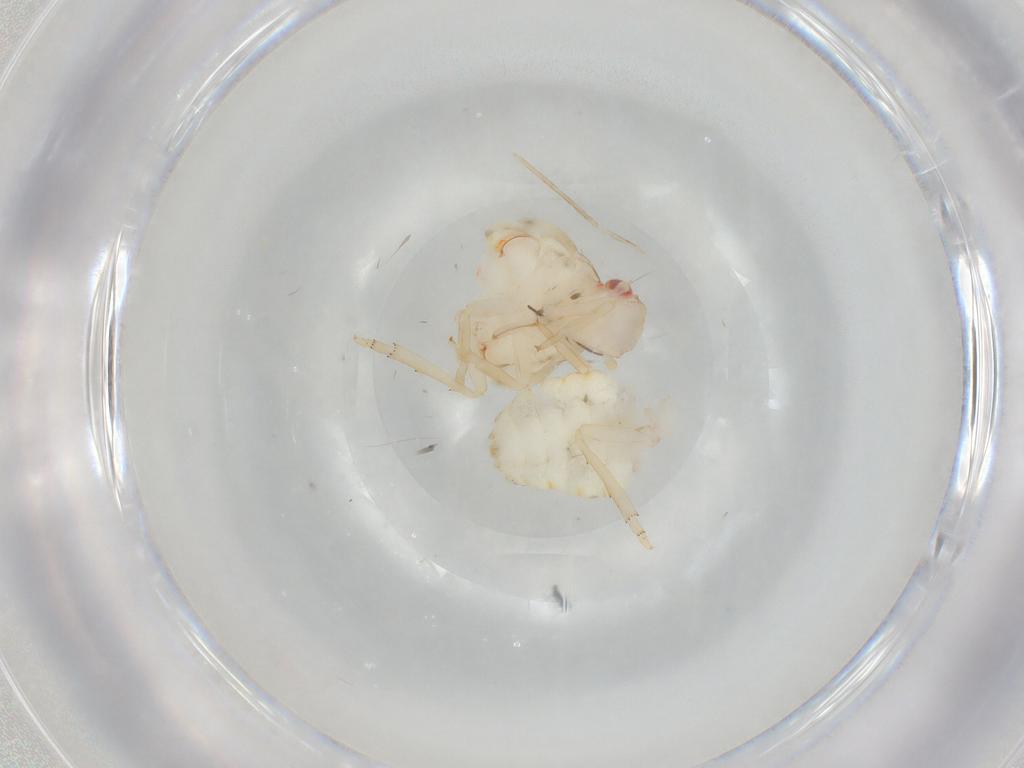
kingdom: Animalia
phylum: Arthropoda
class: Insecta
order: Hemiptera
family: Flatidae
